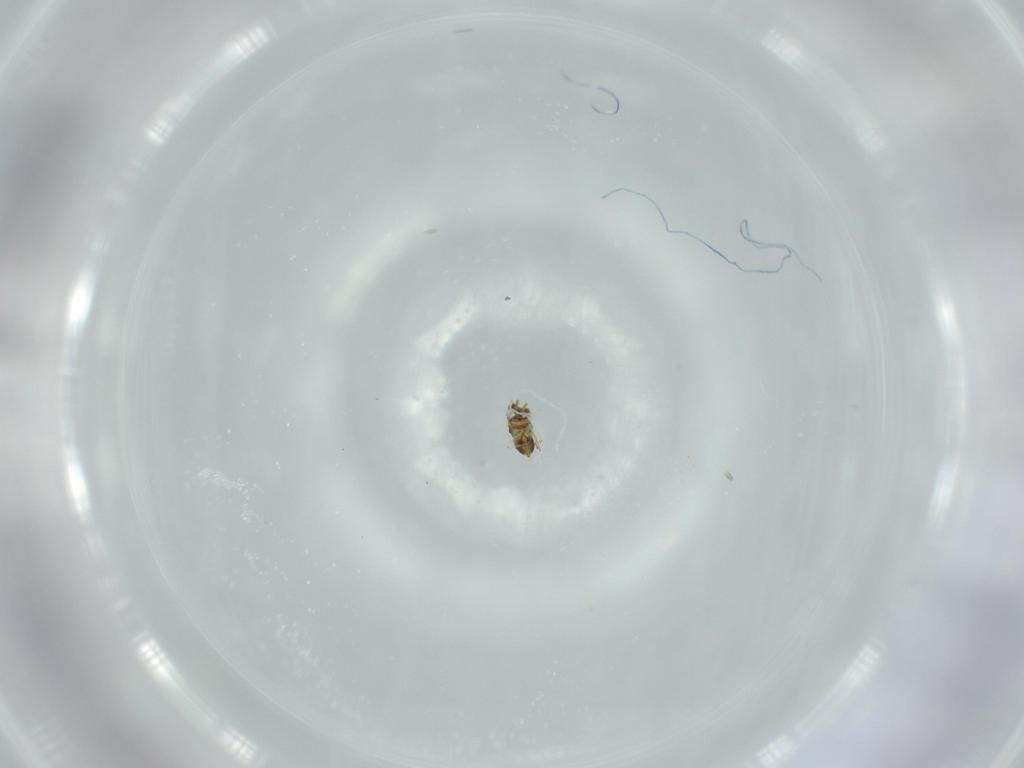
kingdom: Animalia
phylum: Arthropoda
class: Insecta
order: Hymenoptera
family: Aphelinidae
